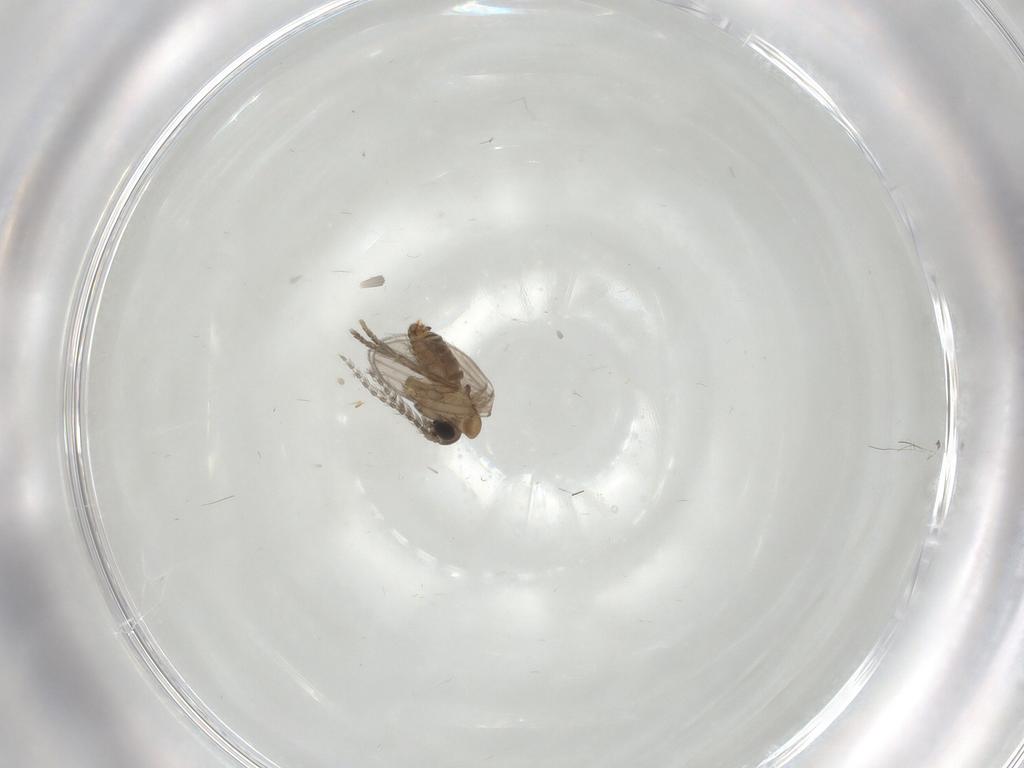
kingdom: Animalia
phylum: Arthropoda
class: Insecta
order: Diptera
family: Psychodidae
